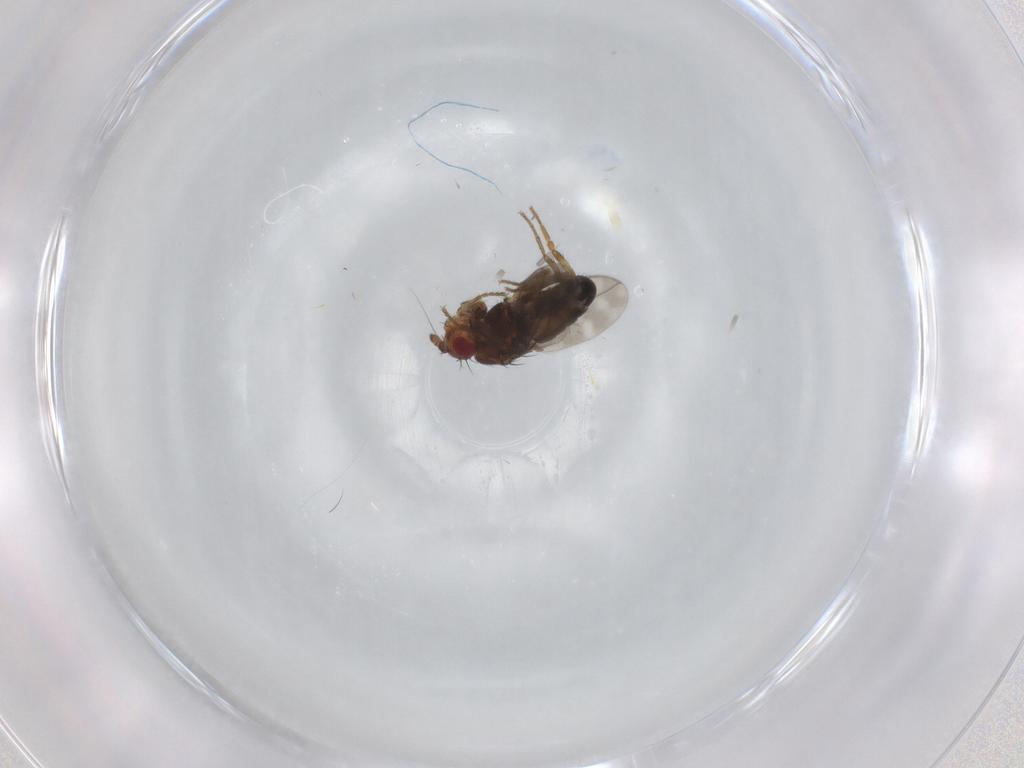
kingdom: Animalia
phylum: Arthropoda
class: Insecta
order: Diptera
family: Sphaeroceridae
